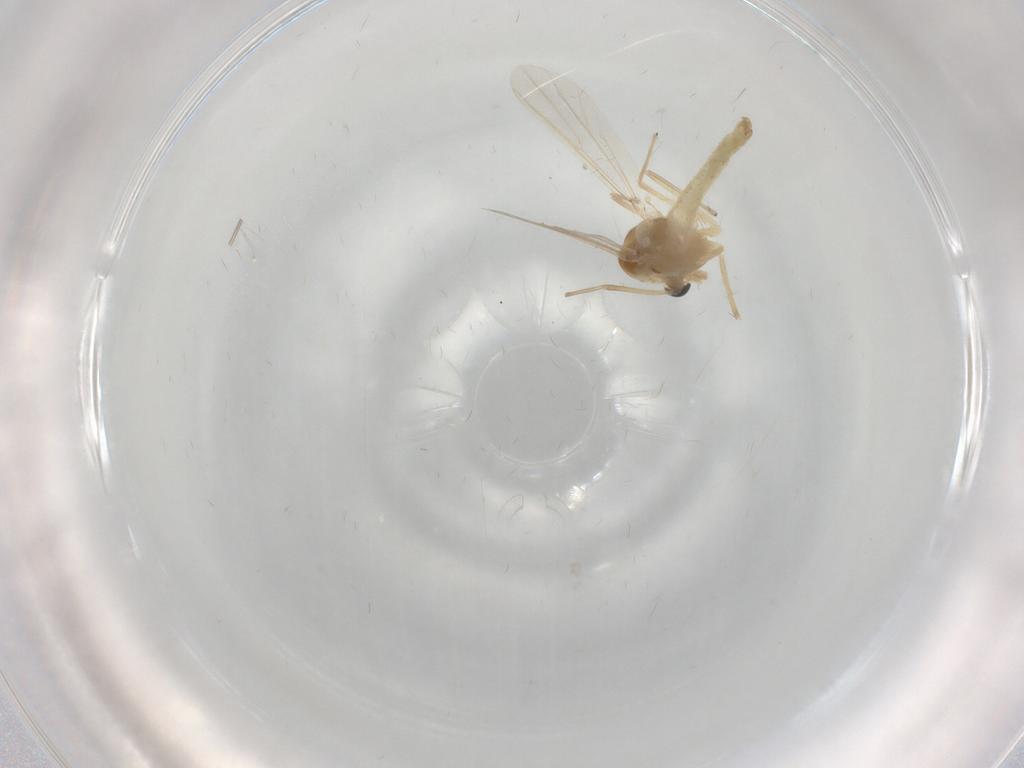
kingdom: Animalia
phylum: Arthropoda
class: Insecta
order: Diptera
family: Chironomidae
